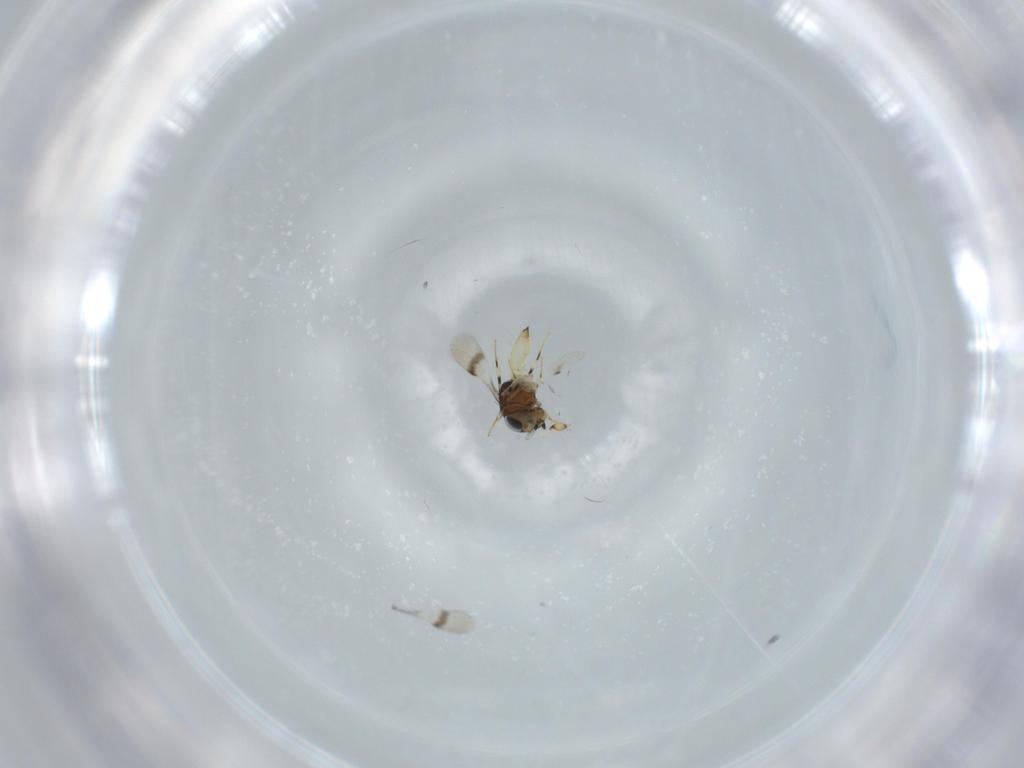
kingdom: Animalia
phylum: Arthropoda
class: Insecta
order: Hymenoptera
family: Scelionidae
